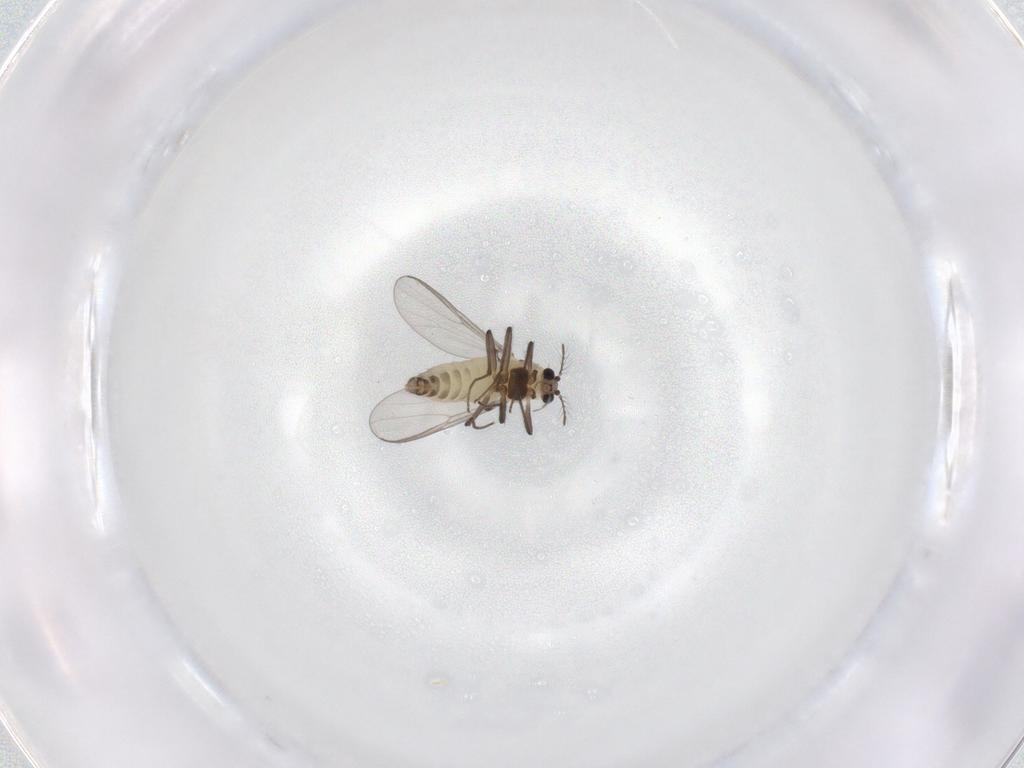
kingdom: Animalia
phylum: Arthropoda
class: Insecta
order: Diptera
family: Chironomidae
